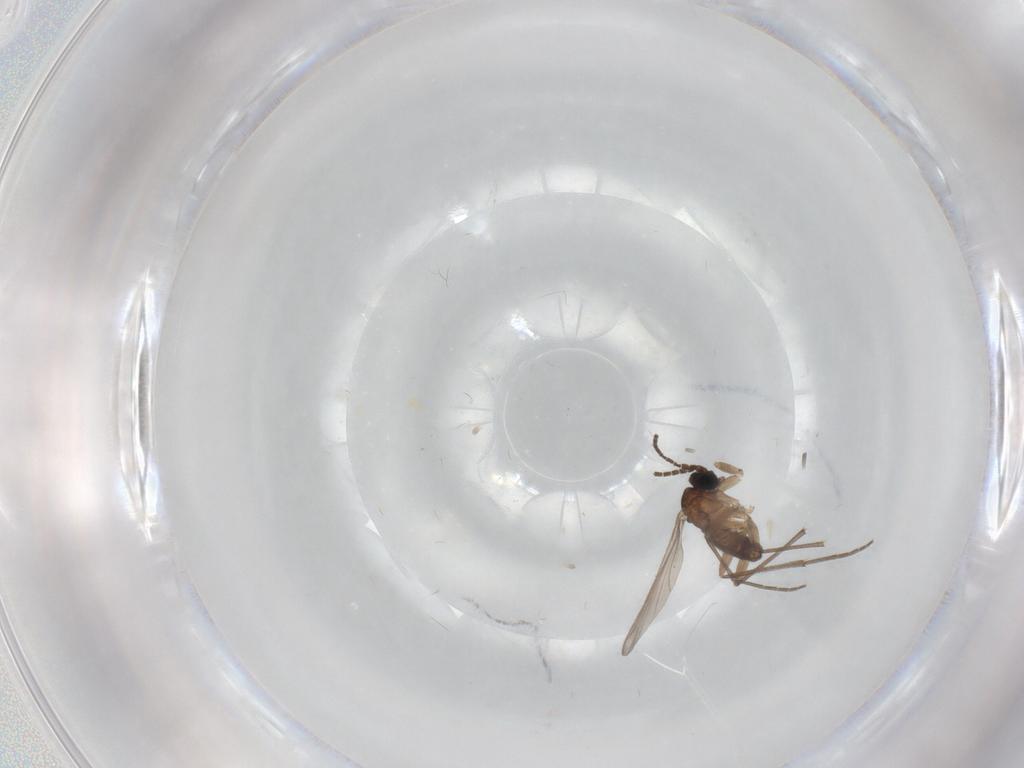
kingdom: Animalia
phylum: Arthropoda
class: Insecta
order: Diptera
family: Sciaridae
